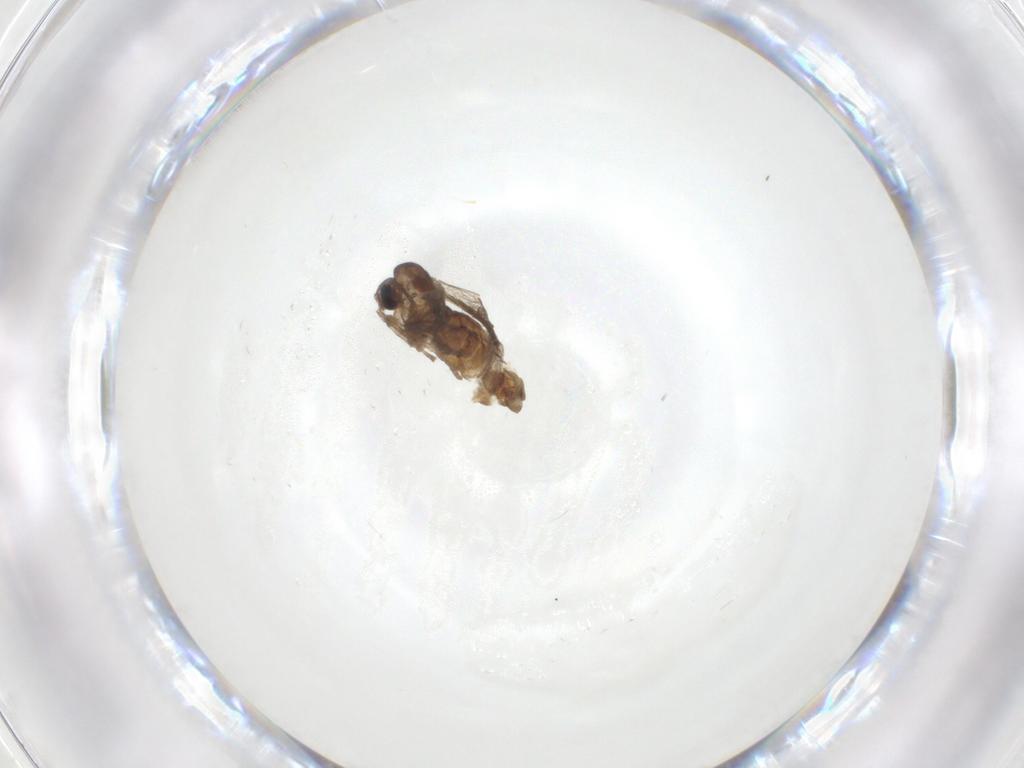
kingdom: Animalia
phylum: Arthropoda
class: Insecta
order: Diptera
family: Psychodidae
